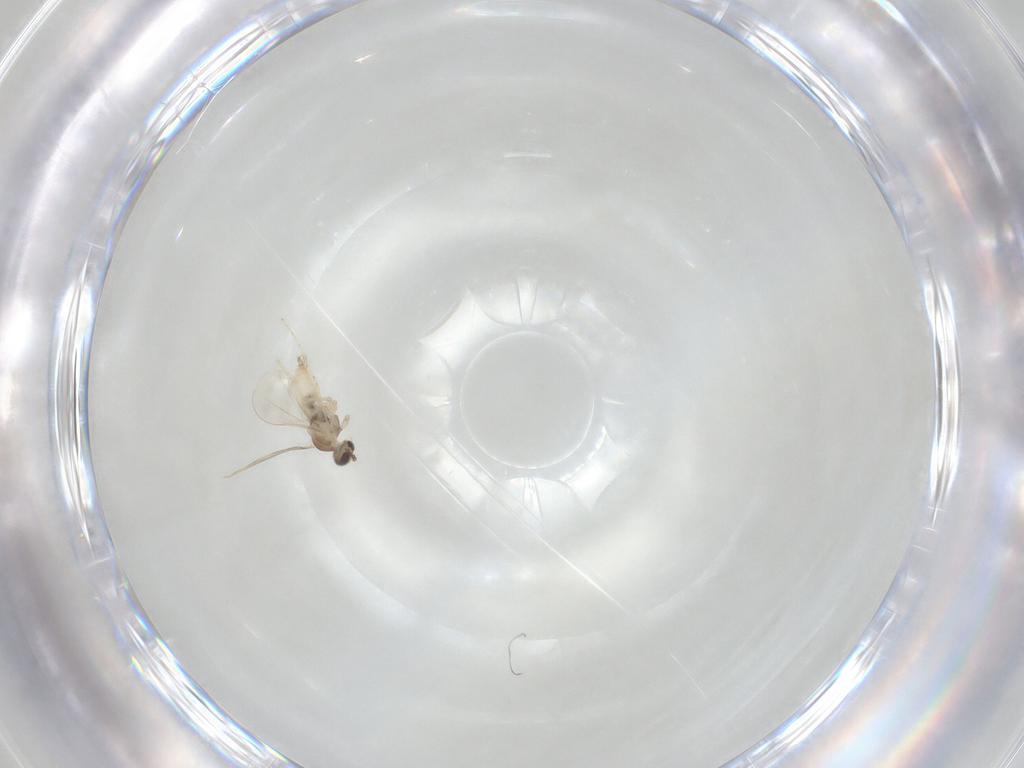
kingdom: Animalia
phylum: Arthropoda
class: Insecta
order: Diptera
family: Cecidomyiidae
